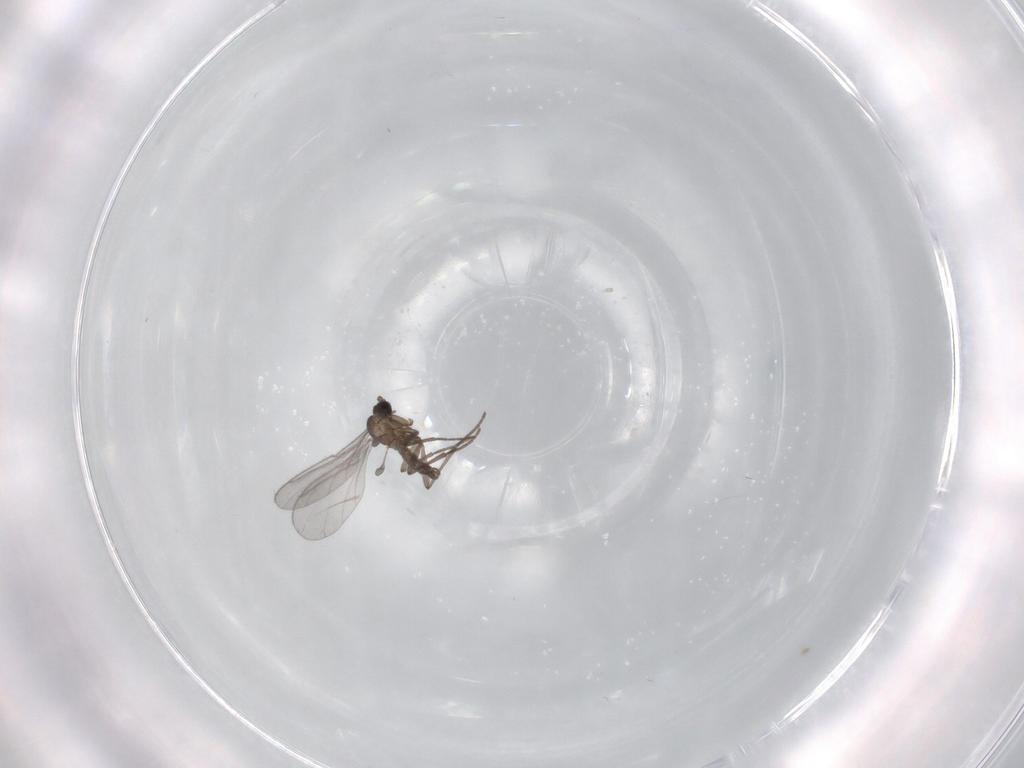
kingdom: Animalia
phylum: Arthropoda
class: Insecta
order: Diptera
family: Sciaridae
